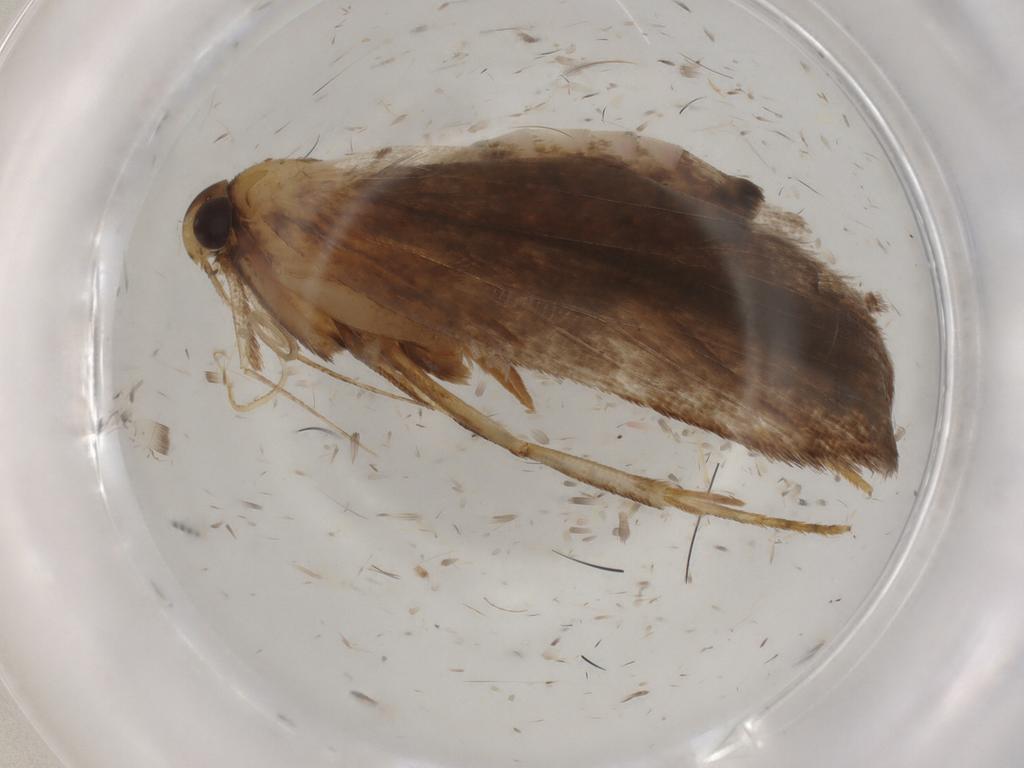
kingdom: Animalia
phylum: Arthropoda
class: Insecta
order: Lepidoptera
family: Gelechiidae
